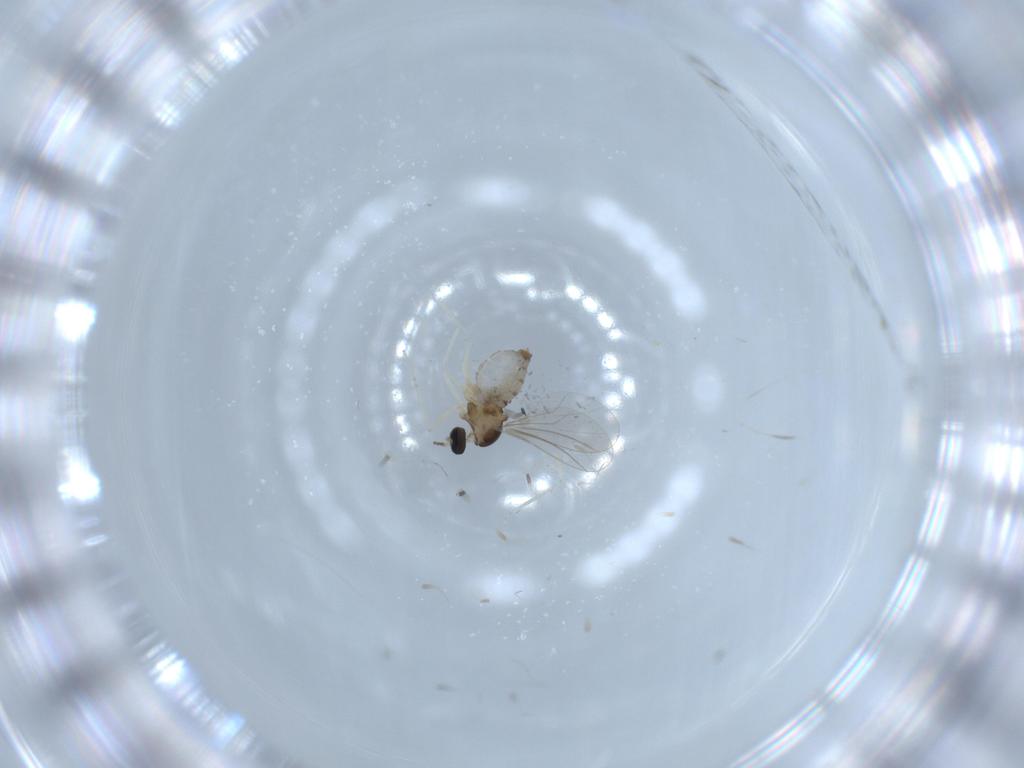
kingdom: Animalia
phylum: Arthropoda
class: Insecta
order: Diptera
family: Cecidomyiidae
